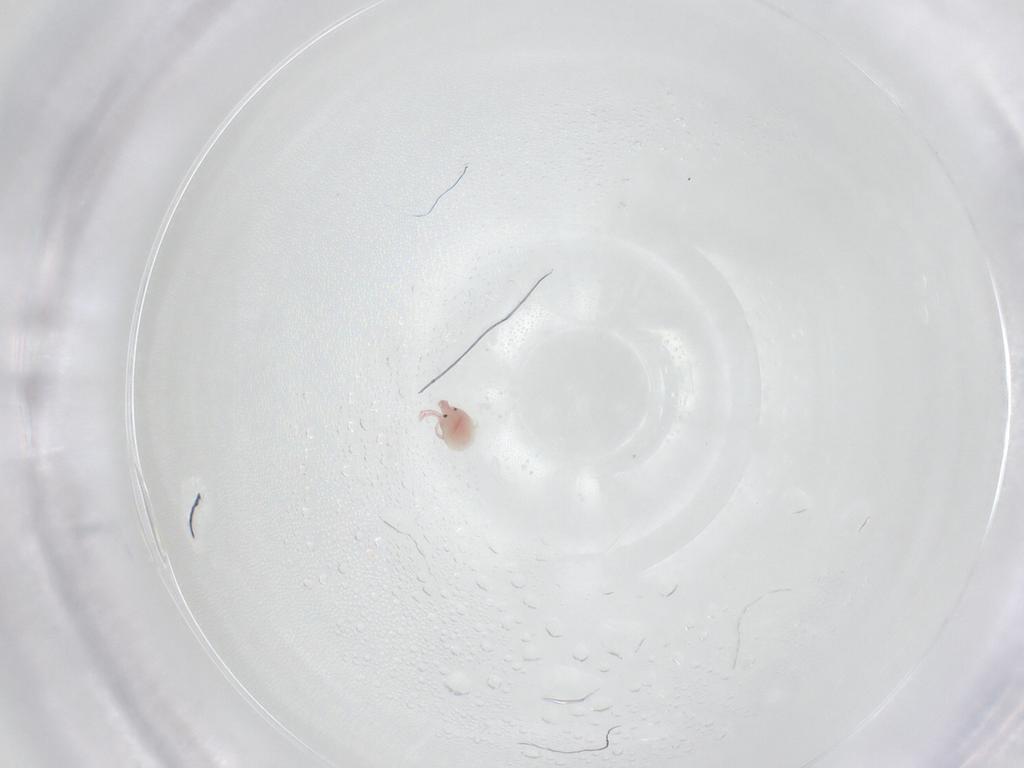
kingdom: Animalia
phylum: Arthropoda
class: Arachnida
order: Trombidiformes
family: Pionidae
